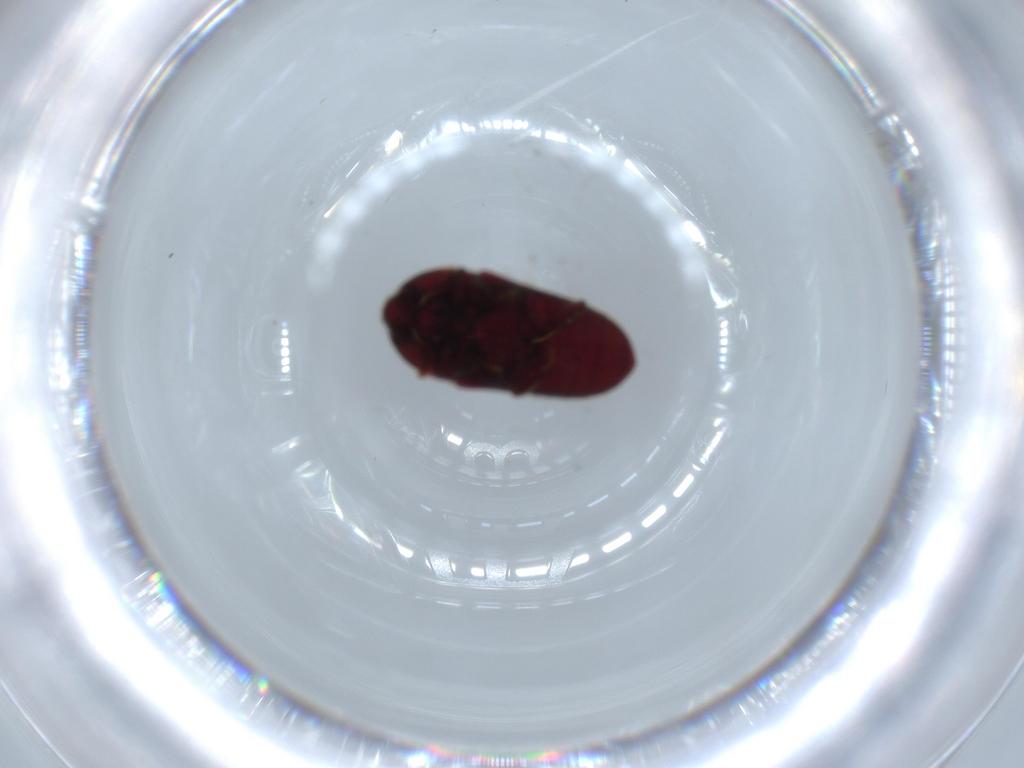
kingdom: Animalia
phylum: Arthropoda
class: Insecta
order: Coleoptera
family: Throscidae
